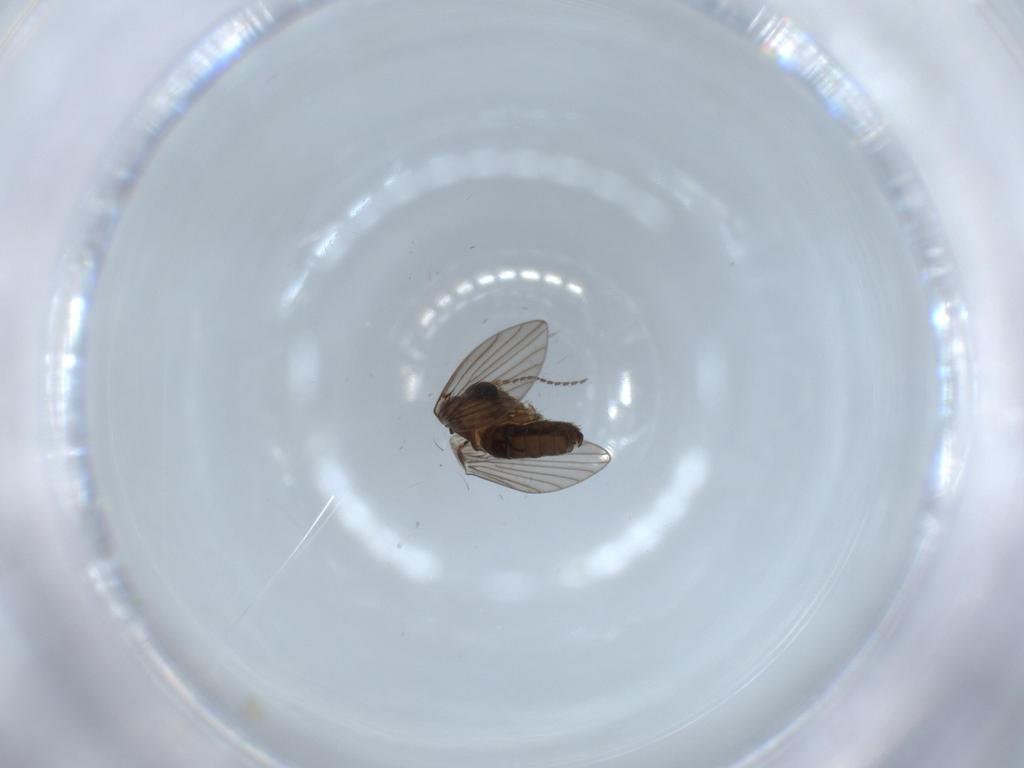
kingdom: Animalia
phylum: Arthropoda
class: Insecta
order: Diptera
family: Psychodidae
